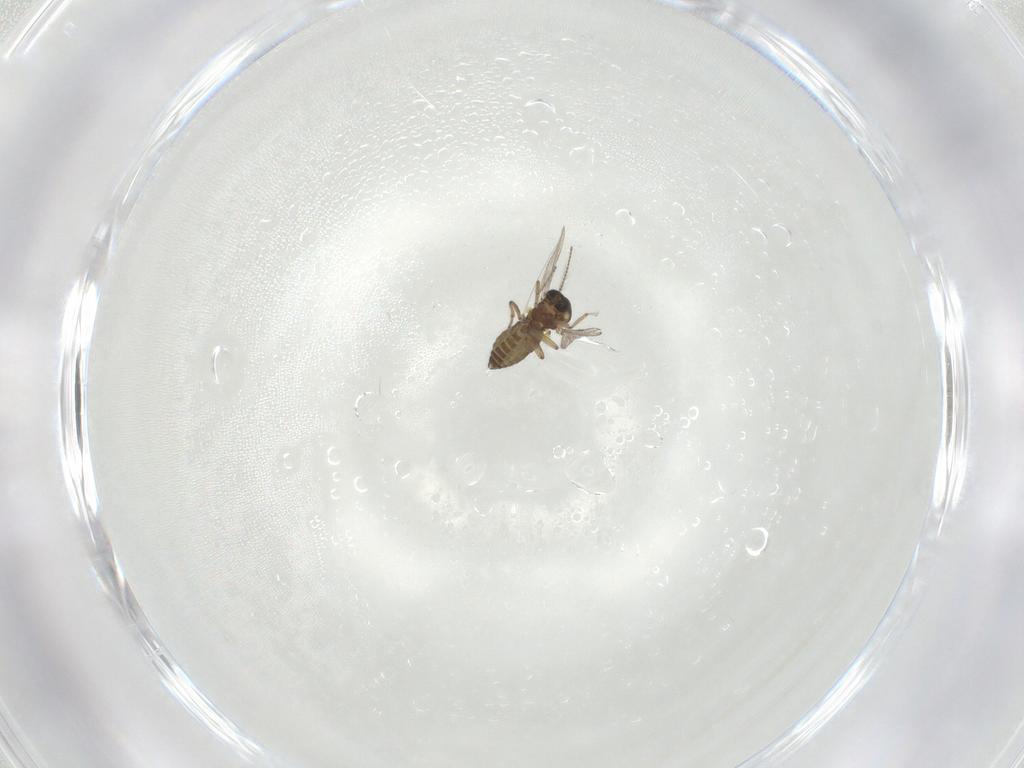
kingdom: Animalia
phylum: Arthropoda
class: Insecta
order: Diptera
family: Ceratopogonidae
